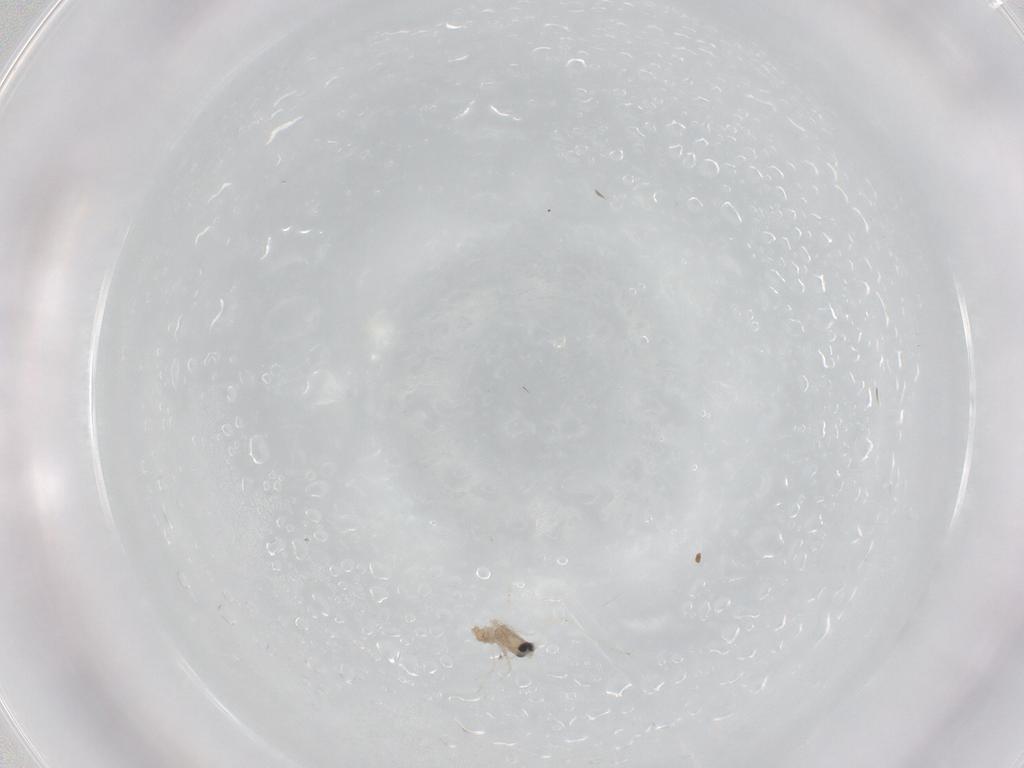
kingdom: Animalia
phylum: Arthropoda
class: Insecta
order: Diptera
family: Cecidomyiidae
